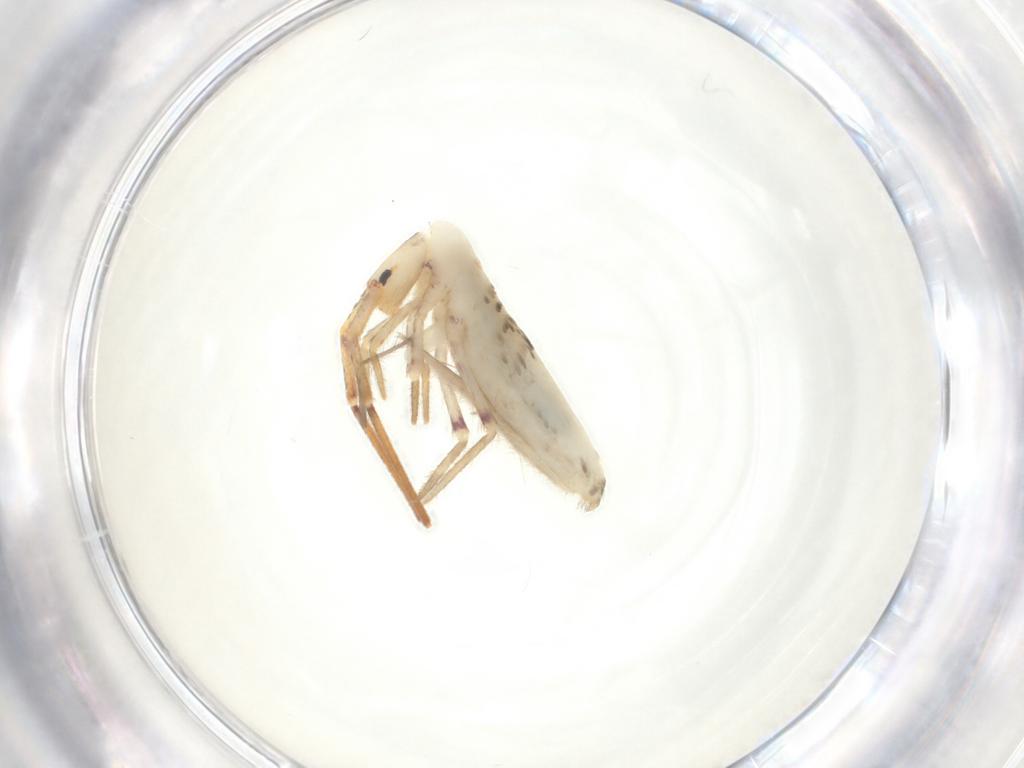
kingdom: Animalia
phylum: Arthropoda
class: Collembola
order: Poduromorpha
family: Hypogastruridae
